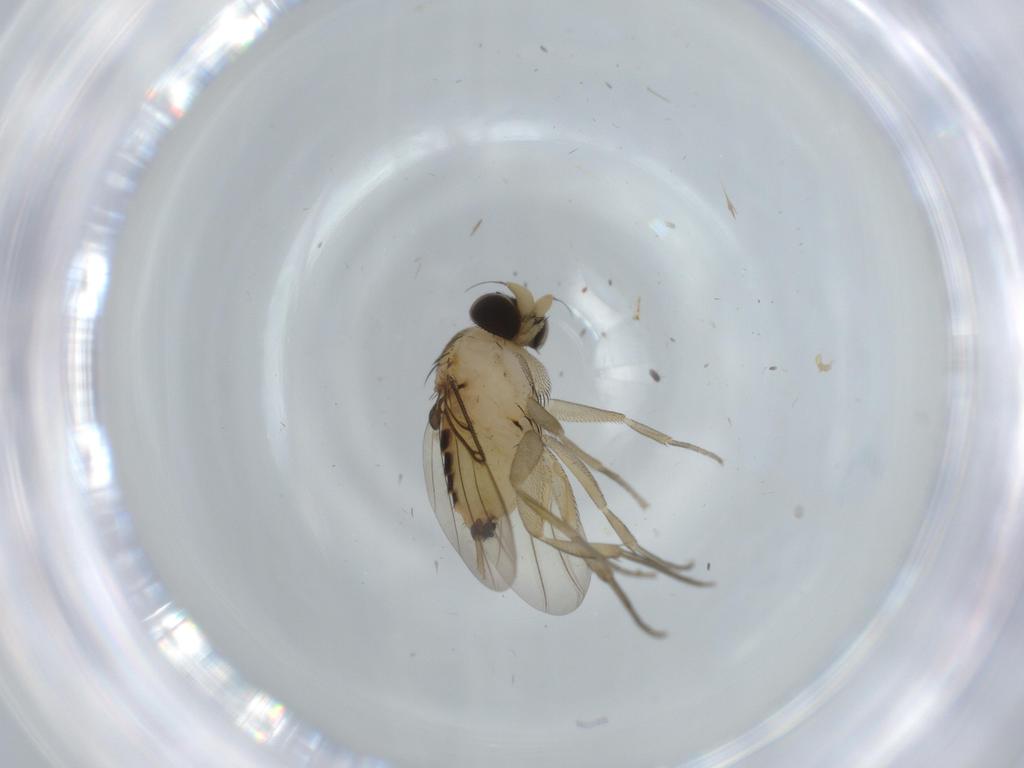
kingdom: Animalia
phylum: Arthropoda
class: Insecta
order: Diptera
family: Phoridae
